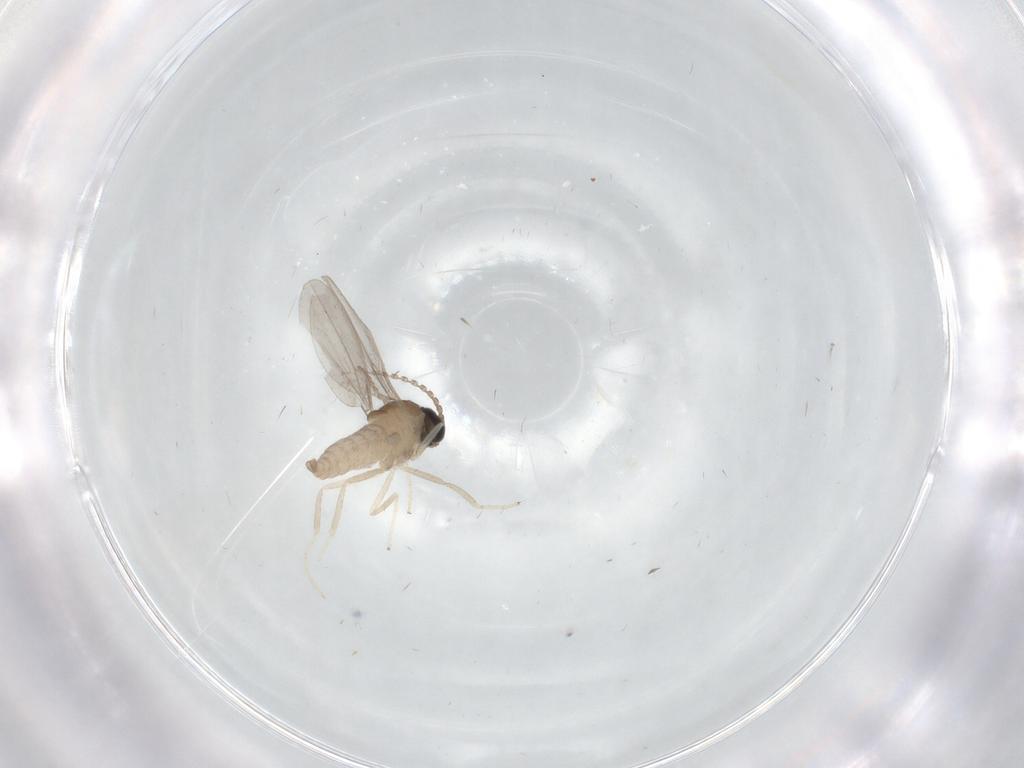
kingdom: Animalia
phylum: Arthropoda
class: Insecta
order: Diptera
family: Cecidomyiidae
